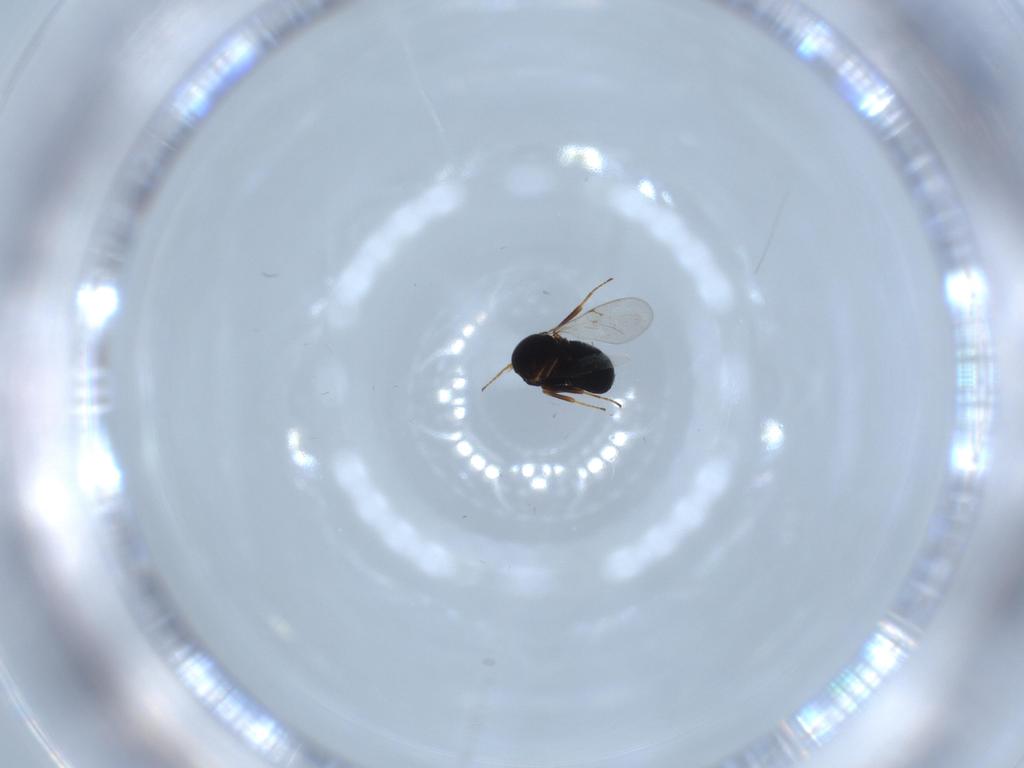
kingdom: Animalia
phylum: Arthropoda
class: Insecta
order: Hymenoptera
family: Scelionidae
